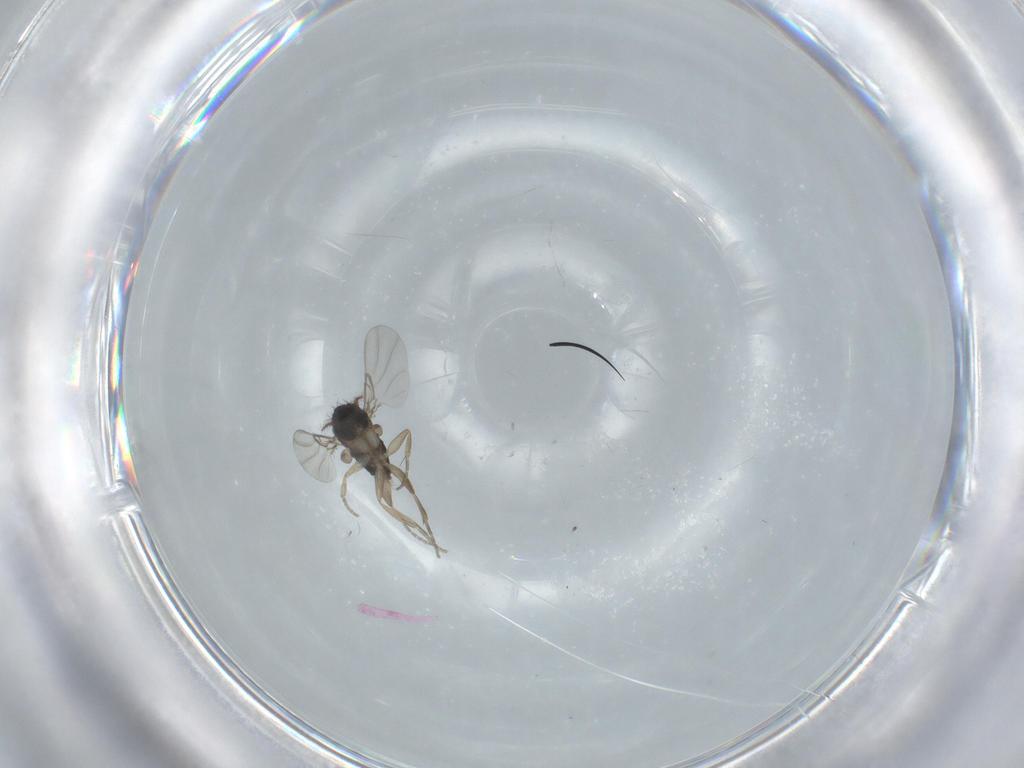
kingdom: Animalia
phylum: Arthropoda
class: Insecta
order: Diptera
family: Phoridae
